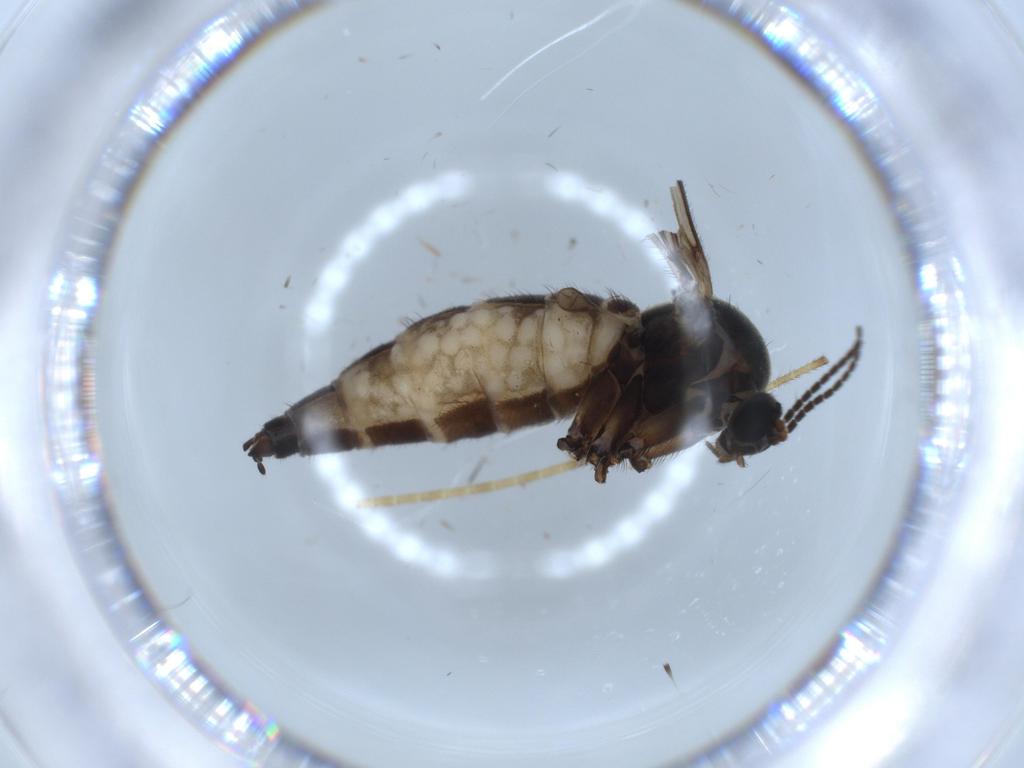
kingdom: Animalia
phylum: Arthropoda
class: Insecta
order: Diptera
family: Sciaridae
